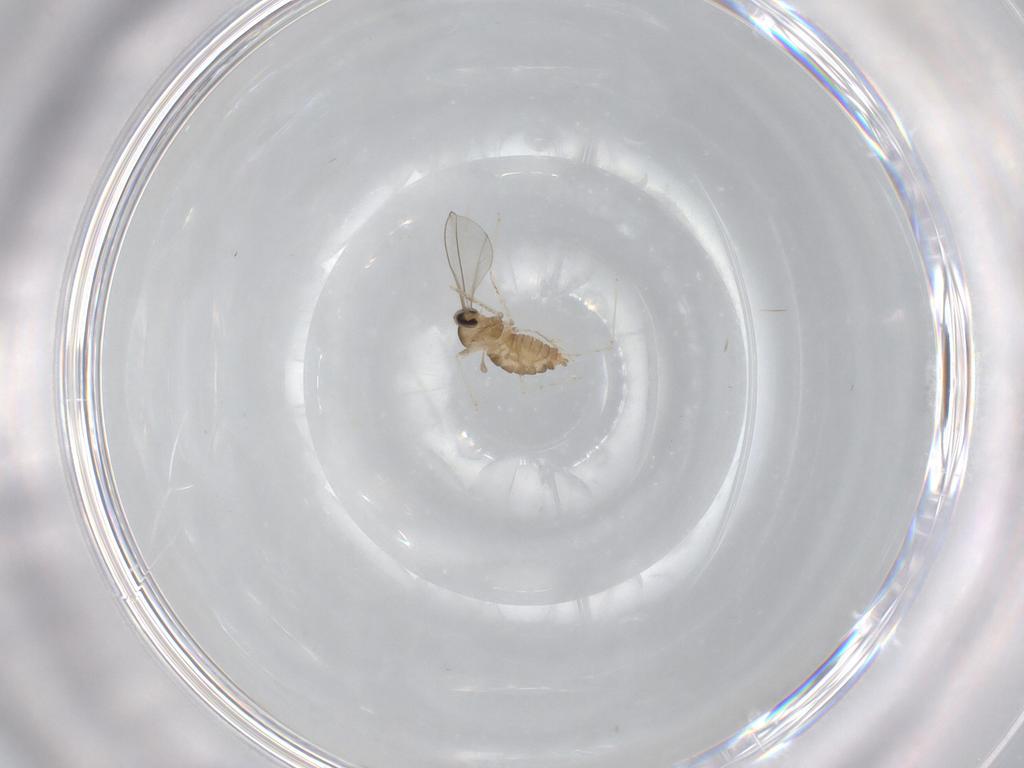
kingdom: Animalia
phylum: Arthropoda
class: Insecta
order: Diptera
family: Cecidomyiidae
